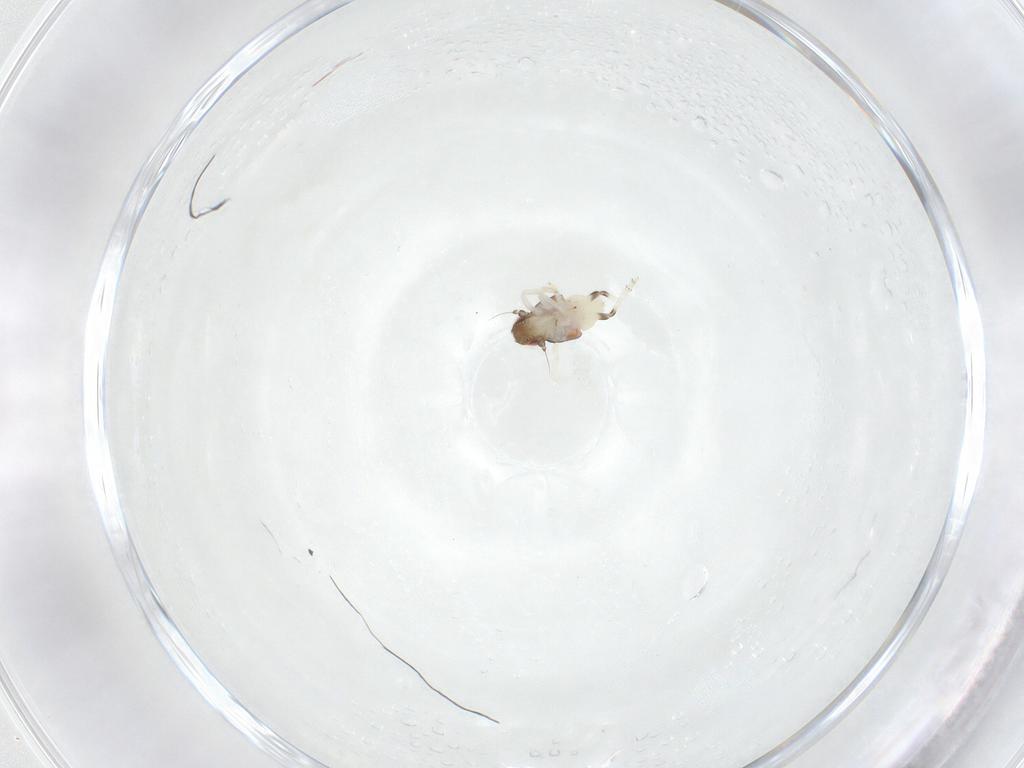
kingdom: Animalia
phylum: Arthropoda
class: Insecta
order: Hemiptera
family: Nogodinidae
